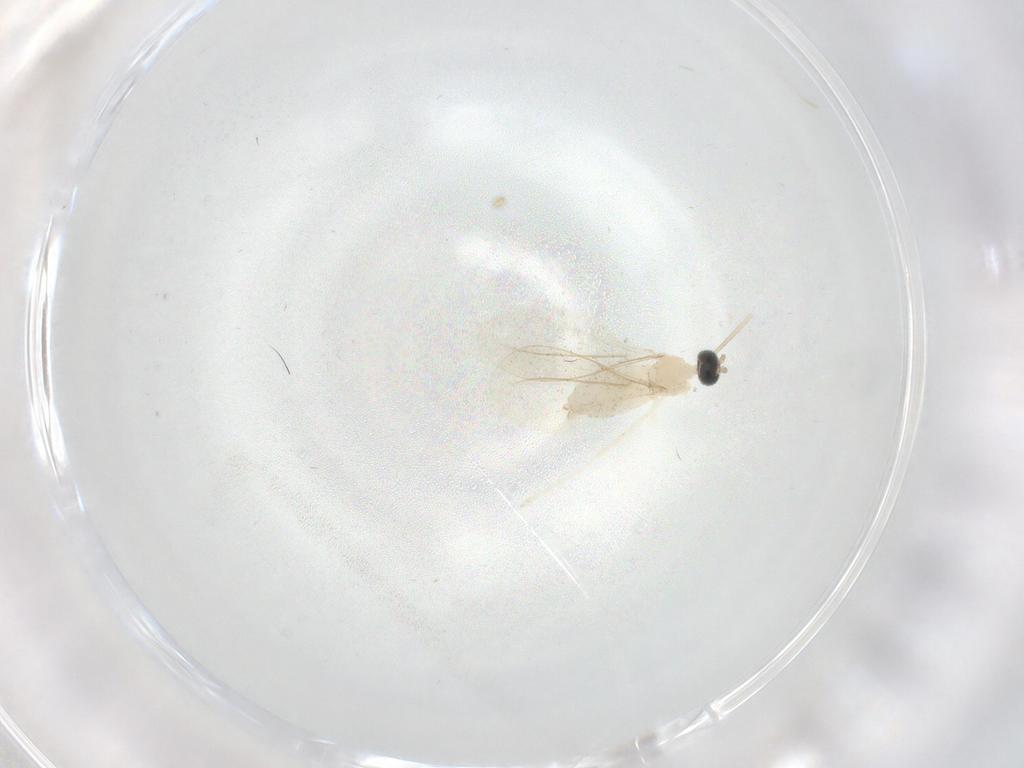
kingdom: Animalia
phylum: Arthropoda
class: Insecta
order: Diptera
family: Cecidomyiidae
